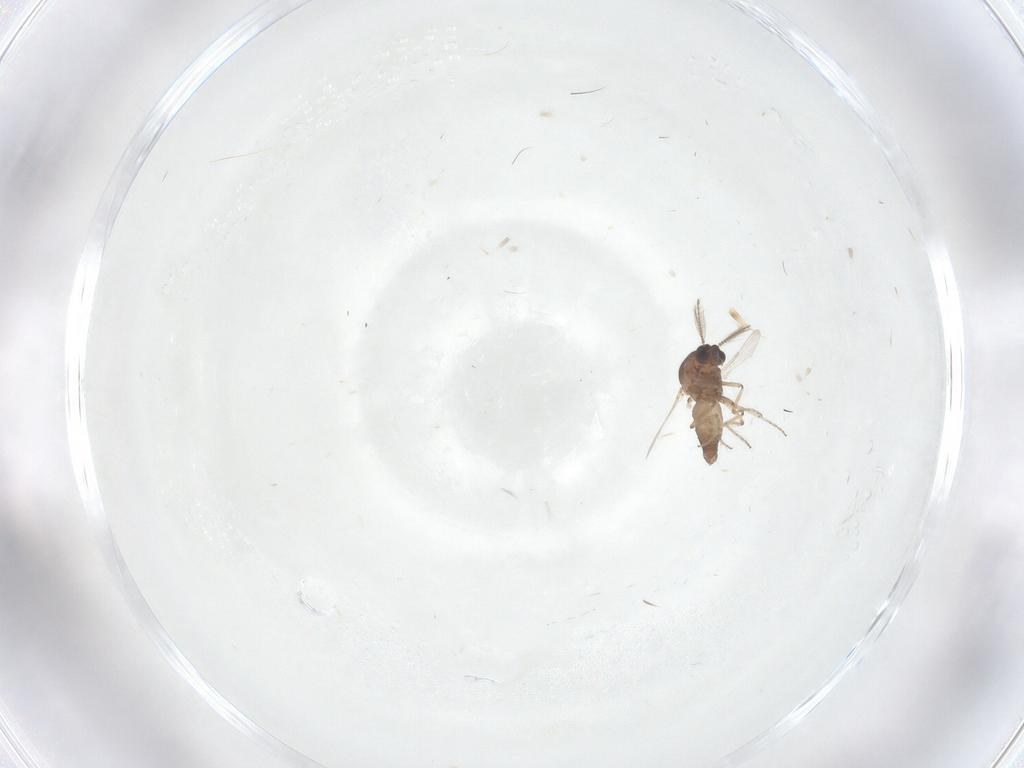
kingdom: Animalia
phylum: Arthropoda
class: Insecta
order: Diptera
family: Ceratopogonidae
